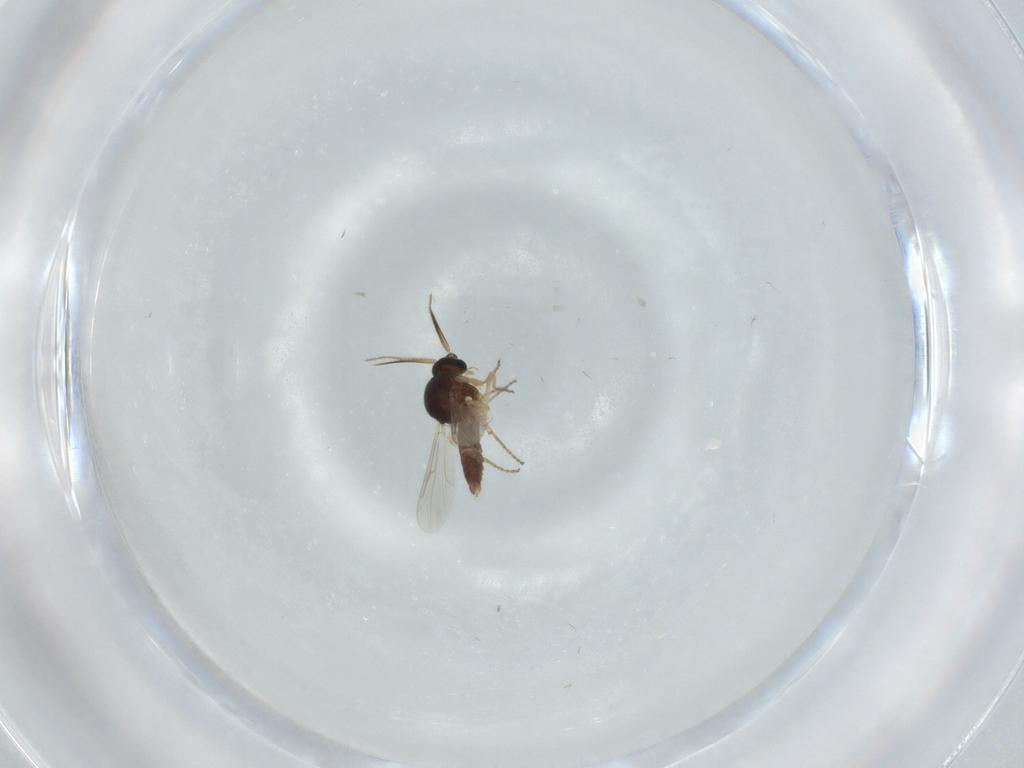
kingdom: Animalia
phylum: Arthropoda
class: Insecta
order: Diptera
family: Ceratopogonidae
